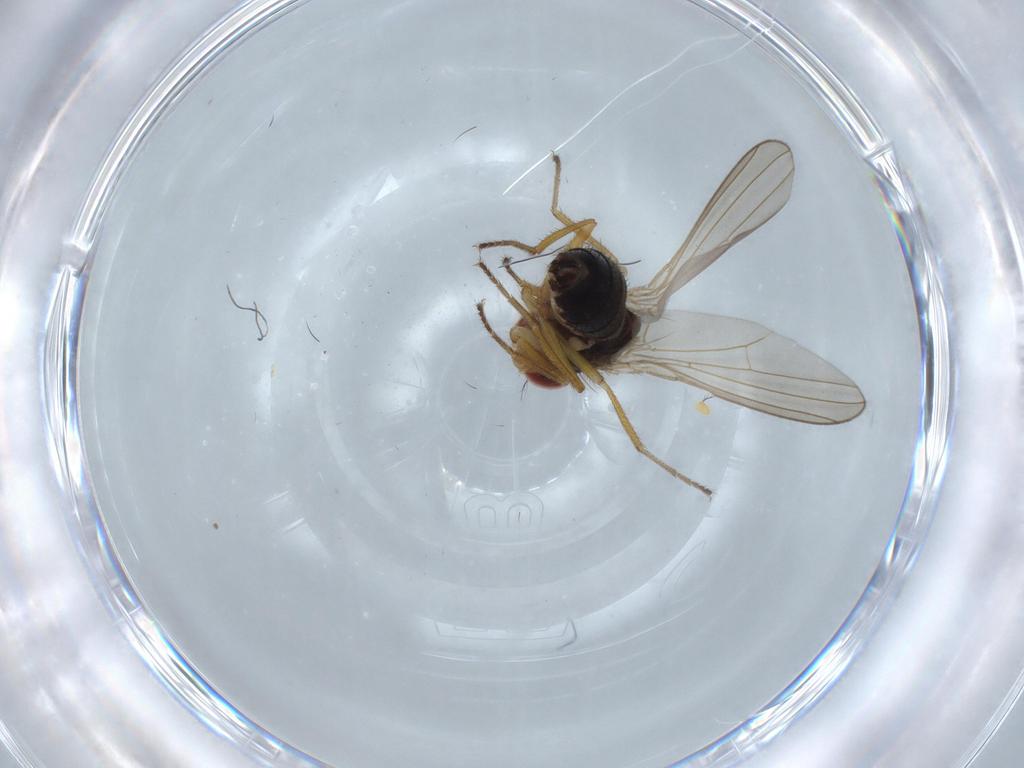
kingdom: Animalia
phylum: Arthropoda
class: Insecta
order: Diptera
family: Drosophilidae
